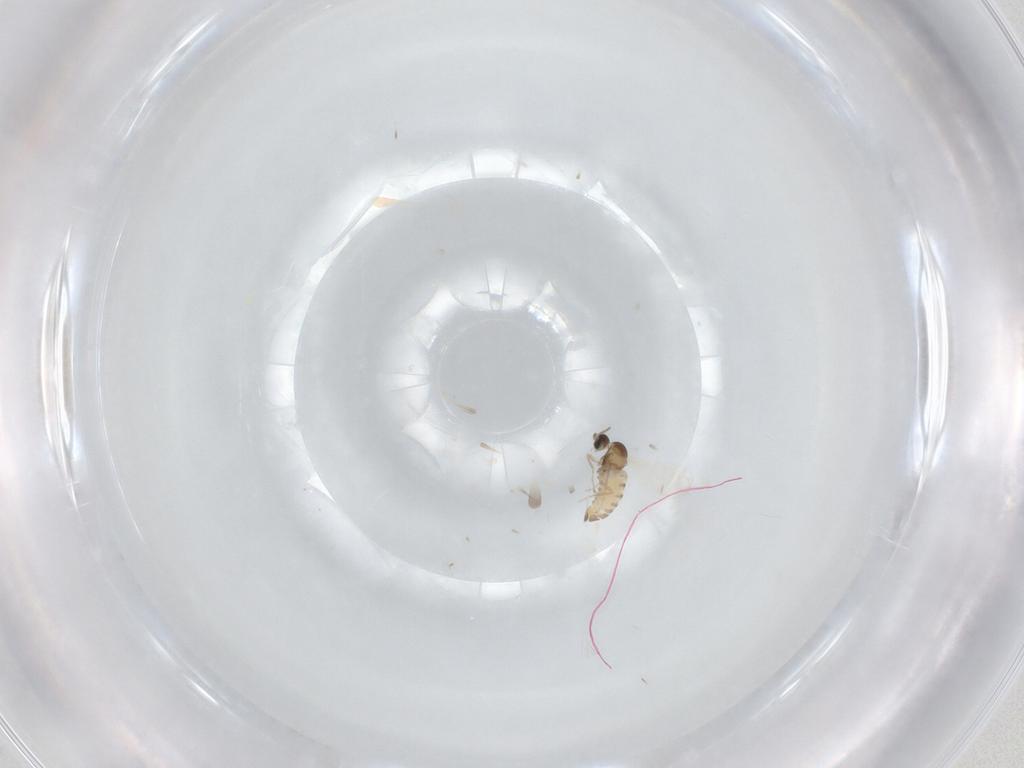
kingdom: Animalia
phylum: Arthropoda
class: Insecta
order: Diptera
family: Cecidomyiidae
